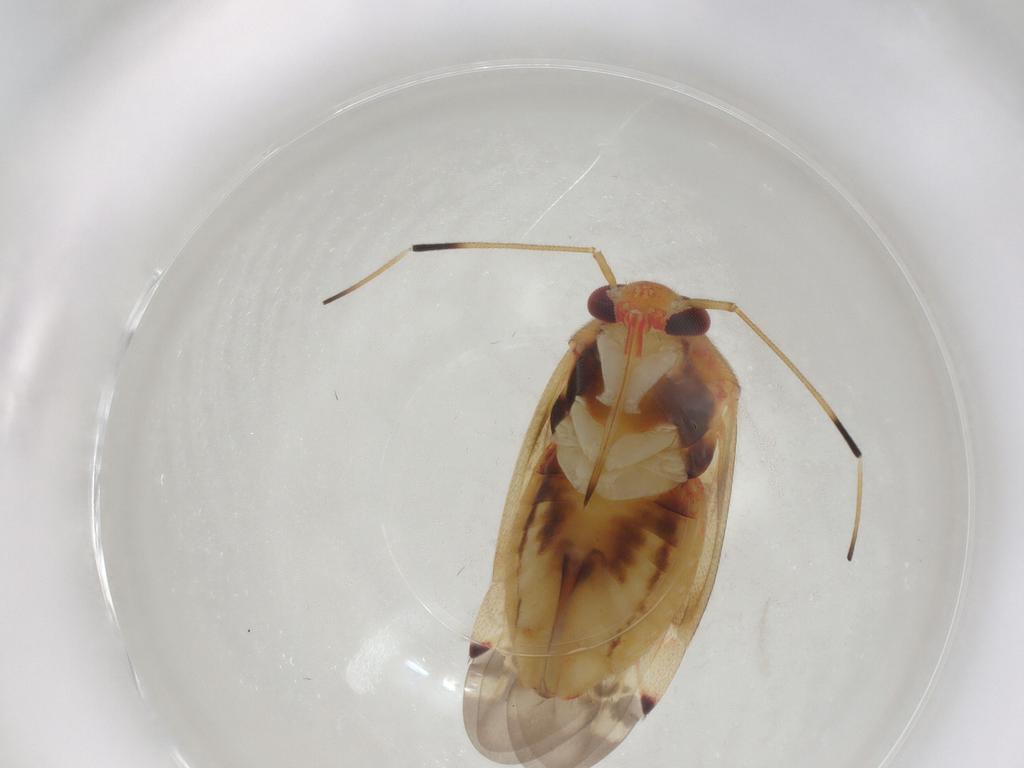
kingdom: Animalia
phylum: Arthropoda
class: Insecta
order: Hemiptera
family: Miridae
